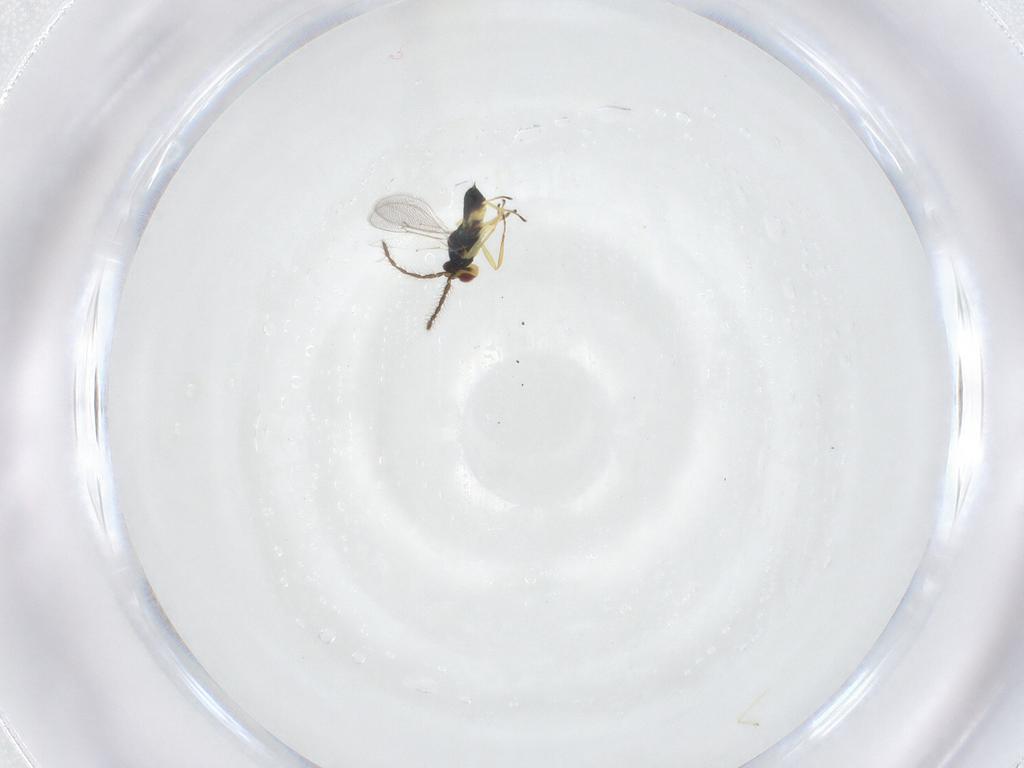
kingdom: Animalia
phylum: Arthropoda
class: Insecta
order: Hymenoptera
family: Eulophidae
